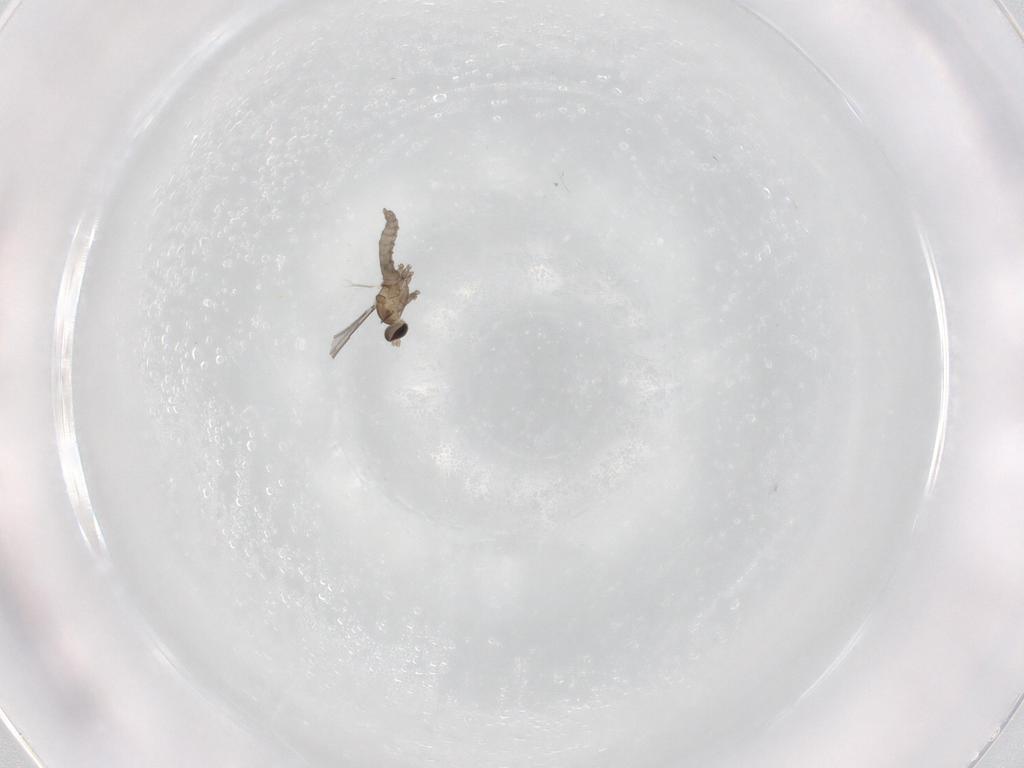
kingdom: Animalia
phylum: Arthropoda
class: Insecta
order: Diptera
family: Cecidomyiidae
